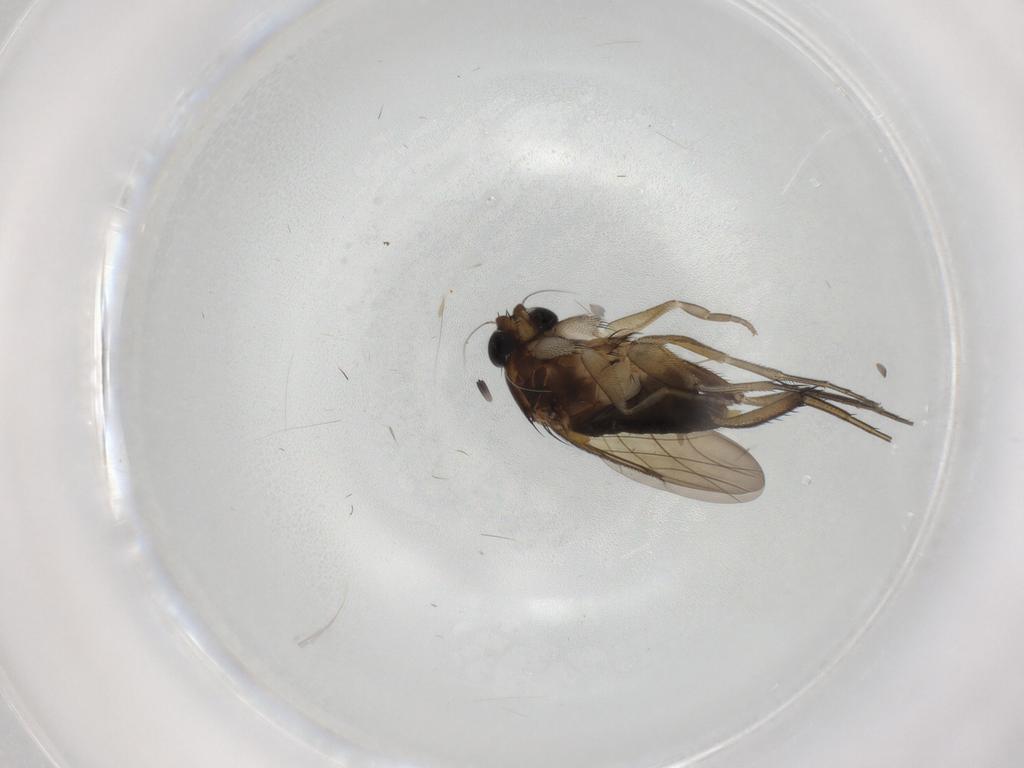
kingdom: Animalia
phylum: Arthropoda
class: Insecta
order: Diptera
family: Phoridae
